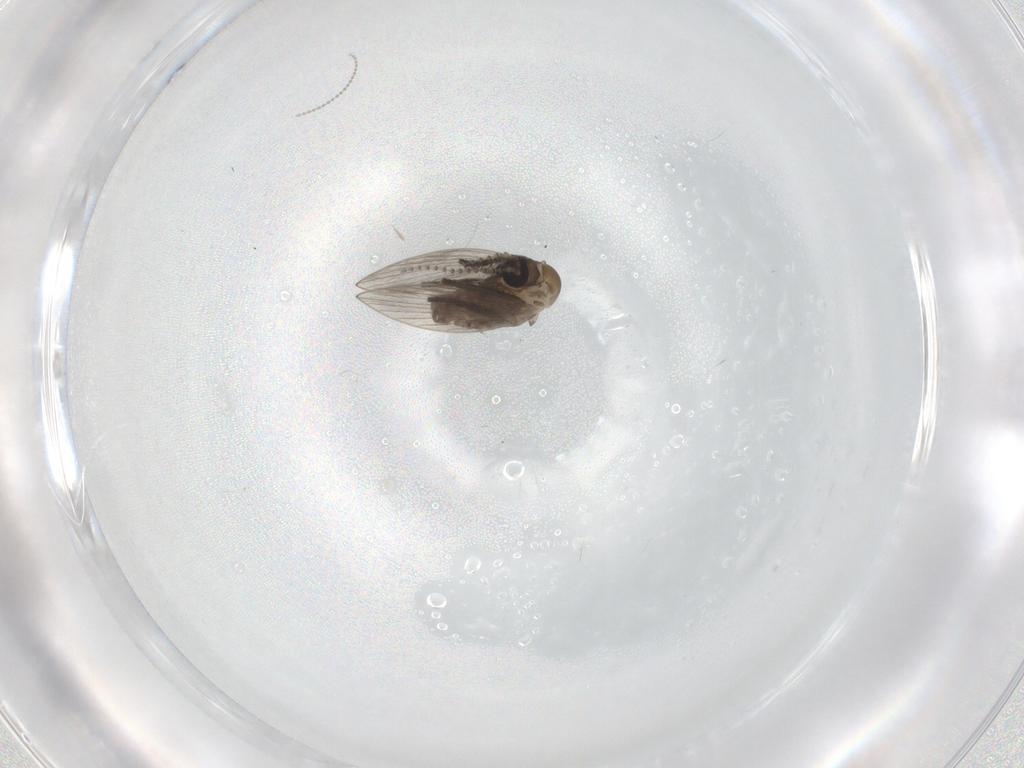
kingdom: Animalia
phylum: Arthropoda
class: Insecta
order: Diptera
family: Psychodidae
